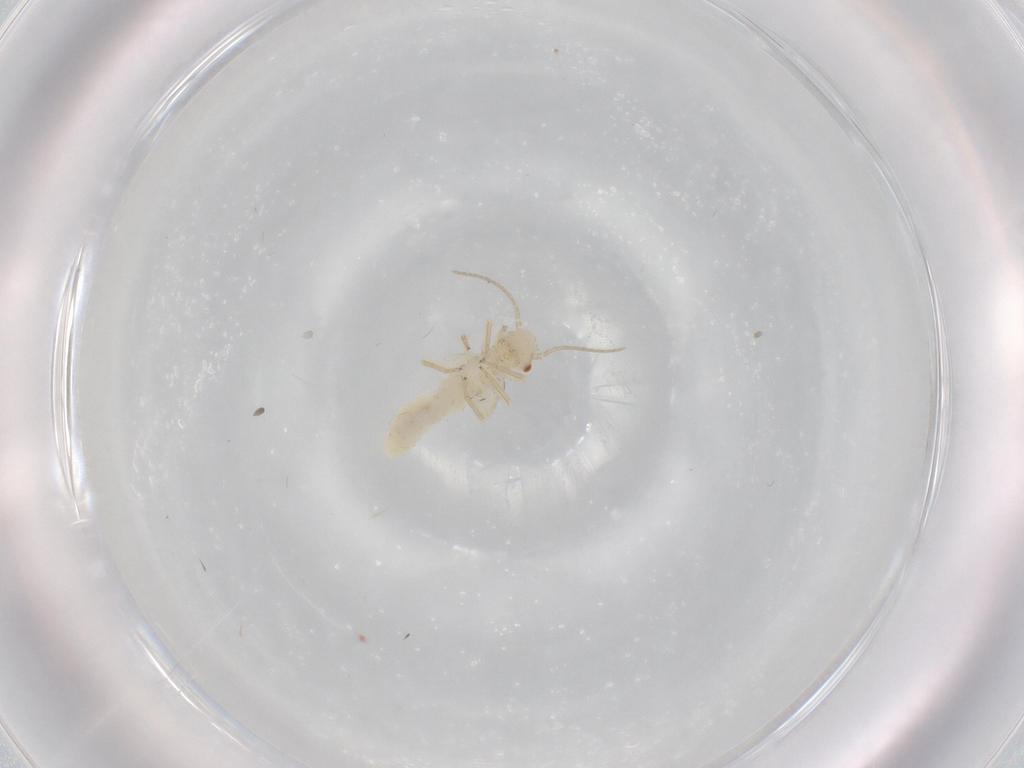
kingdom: Animalia
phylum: Arthropoda
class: Insecta
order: Psocodea
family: Caeciliusidae
